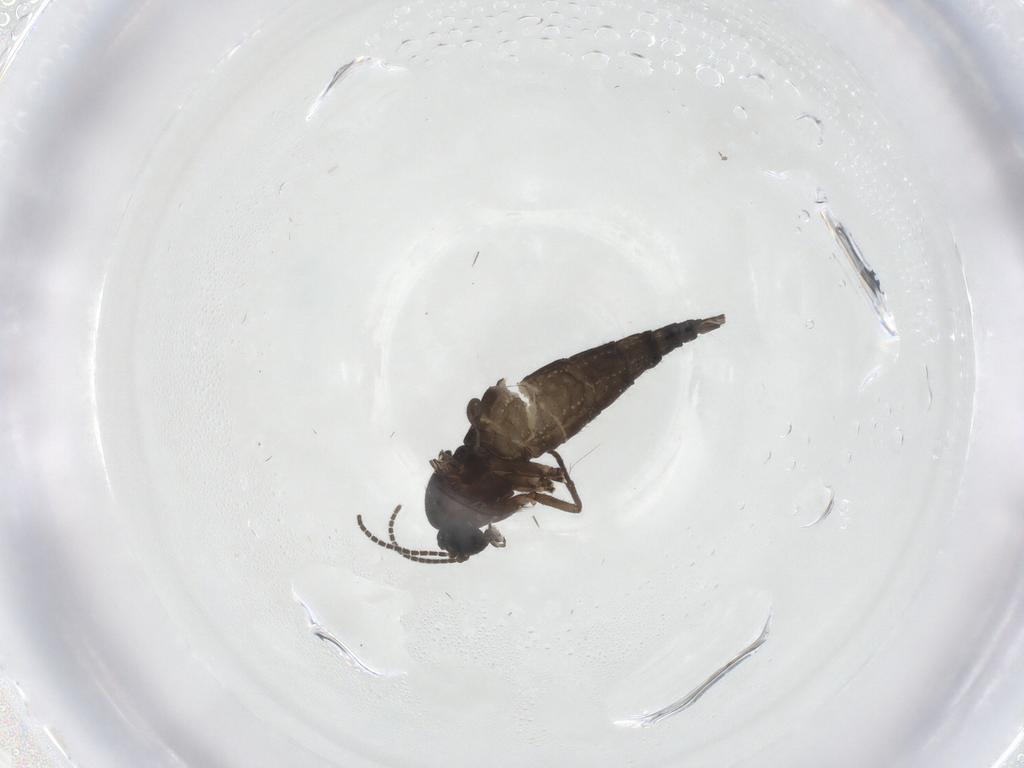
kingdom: Animalia
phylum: Arthropoda
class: Insecta
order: Diptera
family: Sciaridae
